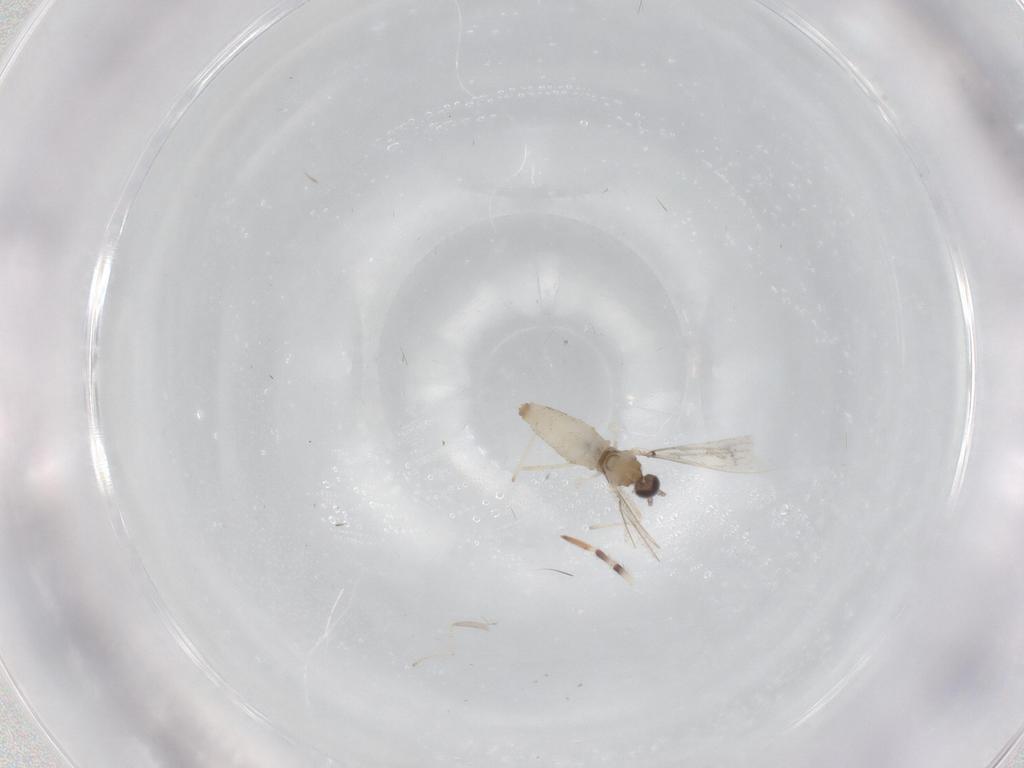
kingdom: Animalia
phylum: Arthropoda
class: Insecta
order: Diptera
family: Cecidomyiidae
